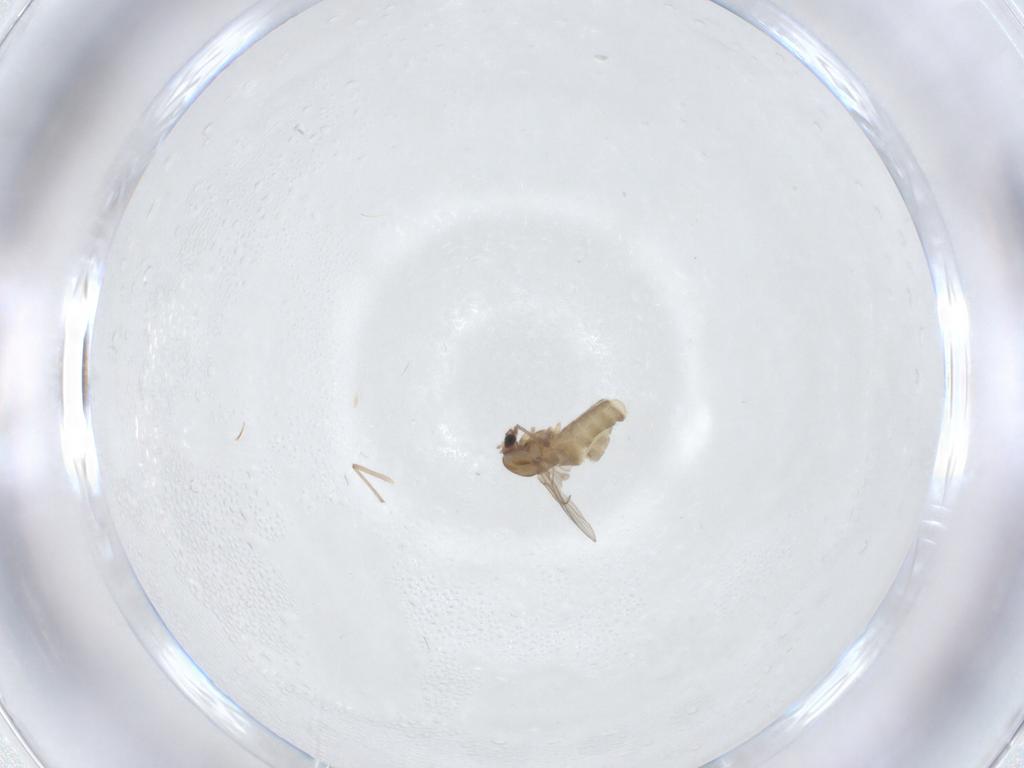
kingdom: Animalia
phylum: Arthropoda
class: Insecta
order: Diptera
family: Chironomidae
